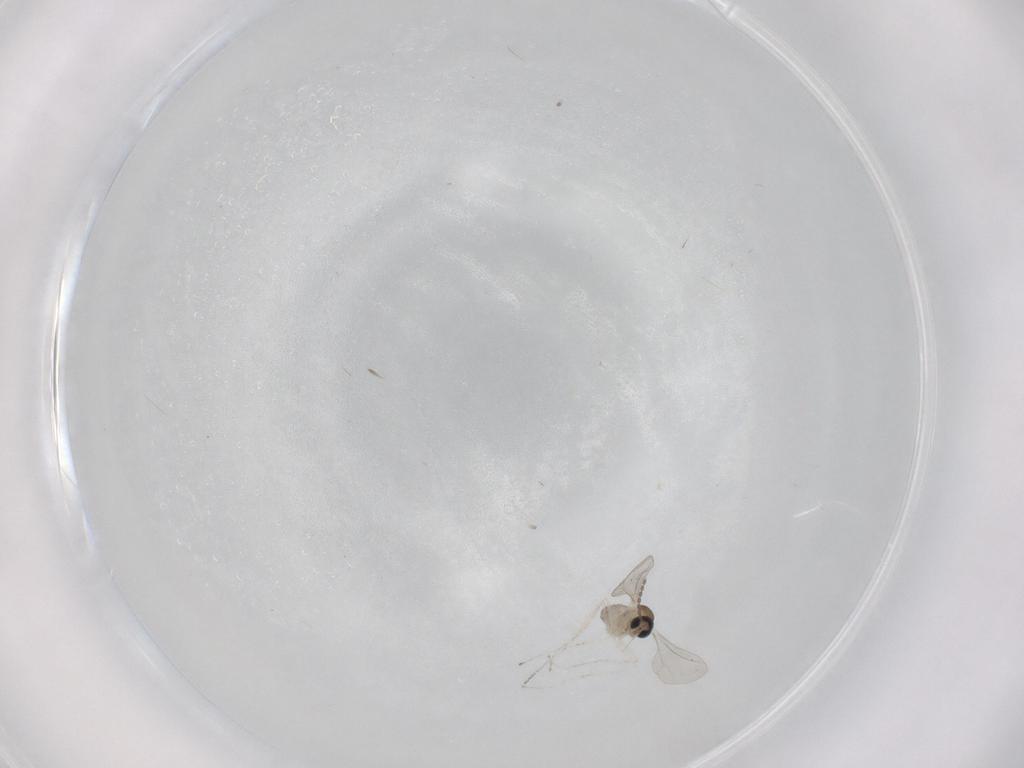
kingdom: Animalia
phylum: Arthropoda
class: Insecta
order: Diptera
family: Cecidomyiidae
